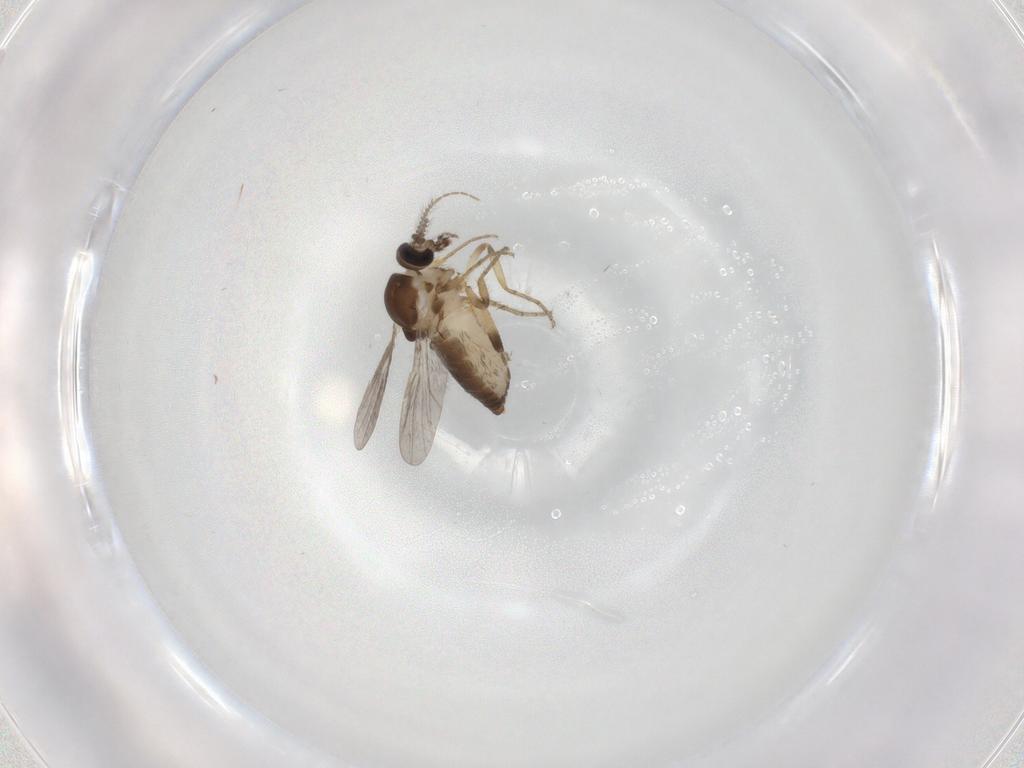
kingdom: Animalia
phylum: Arthropoda
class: Insecta
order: Diptera
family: Ceratopogonidae
